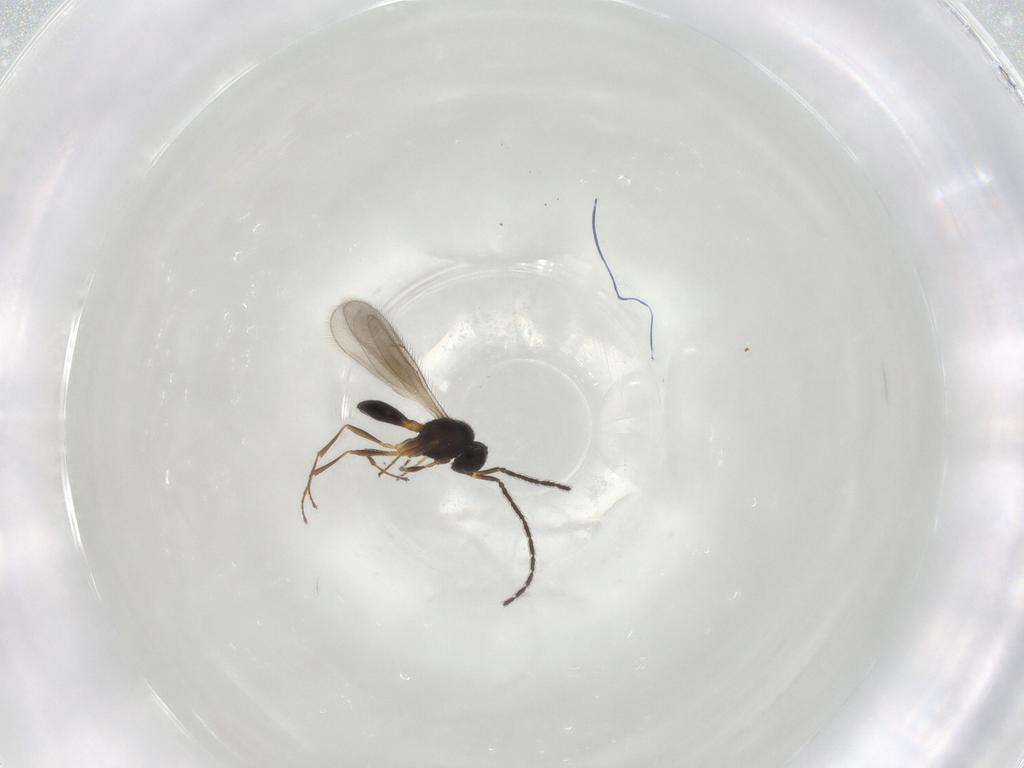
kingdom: Animalia
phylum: Arthropoda
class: Insecta
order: Hymenoptera
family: Scelionidae
